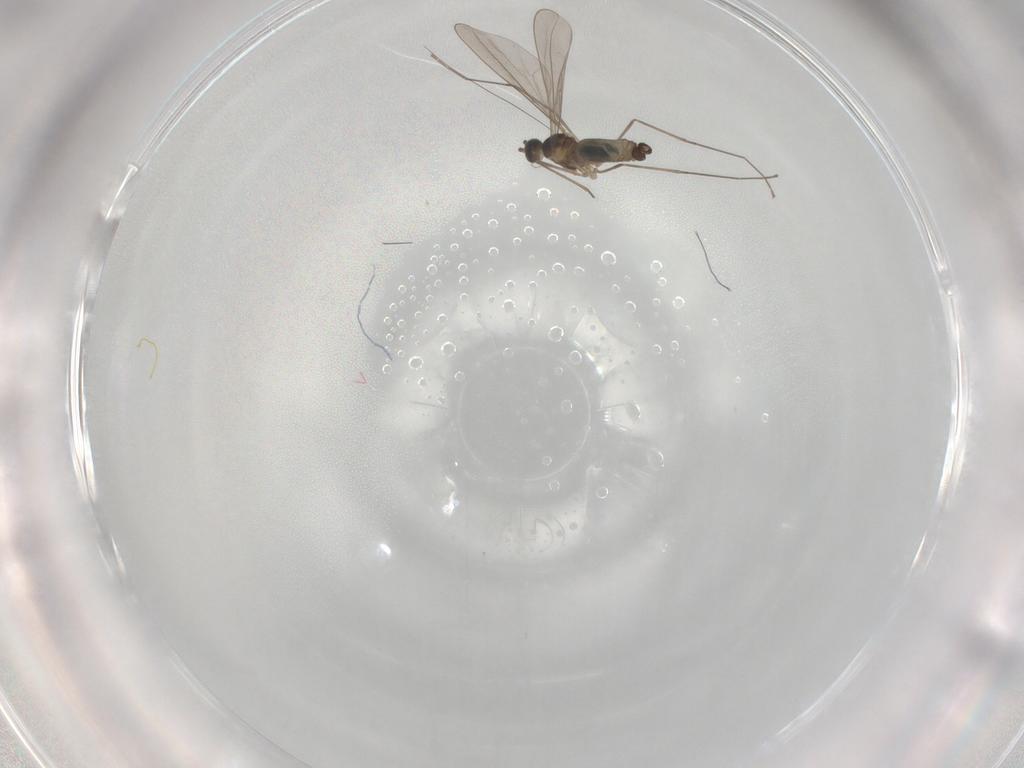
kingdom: Animalia
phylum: Arthropoda
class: Insecta
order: Diptera
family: Cecidomyiidae
